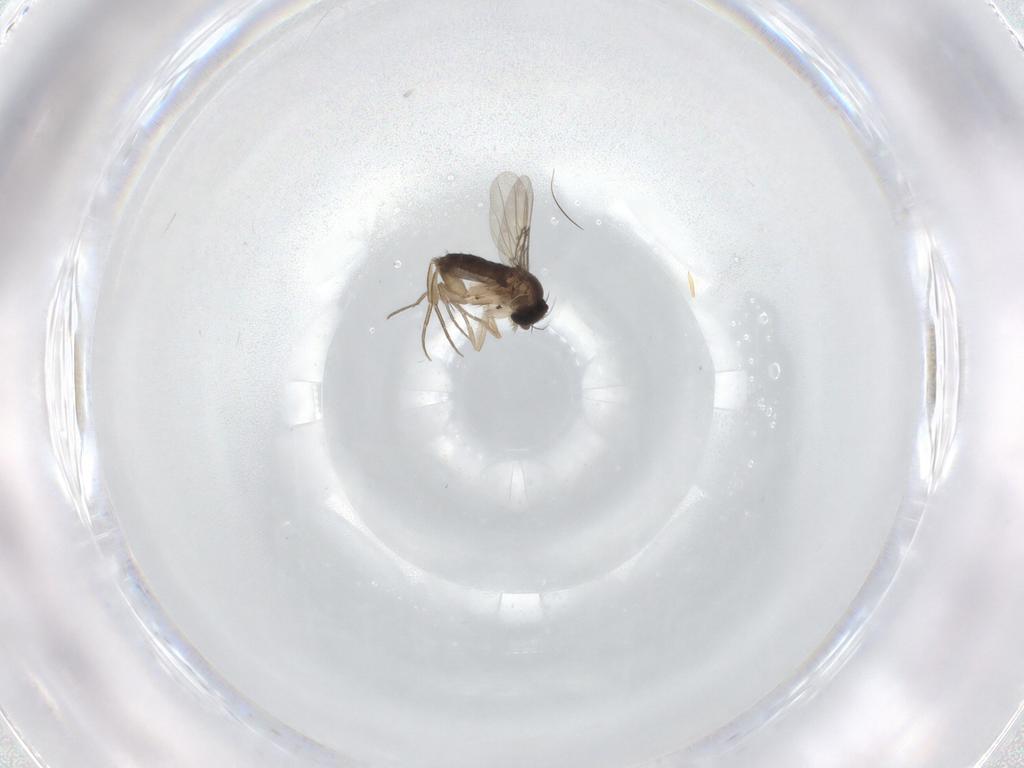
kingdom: Animalia
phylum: Arthropoda
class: Insecta
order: Diptera
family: Phoridae
